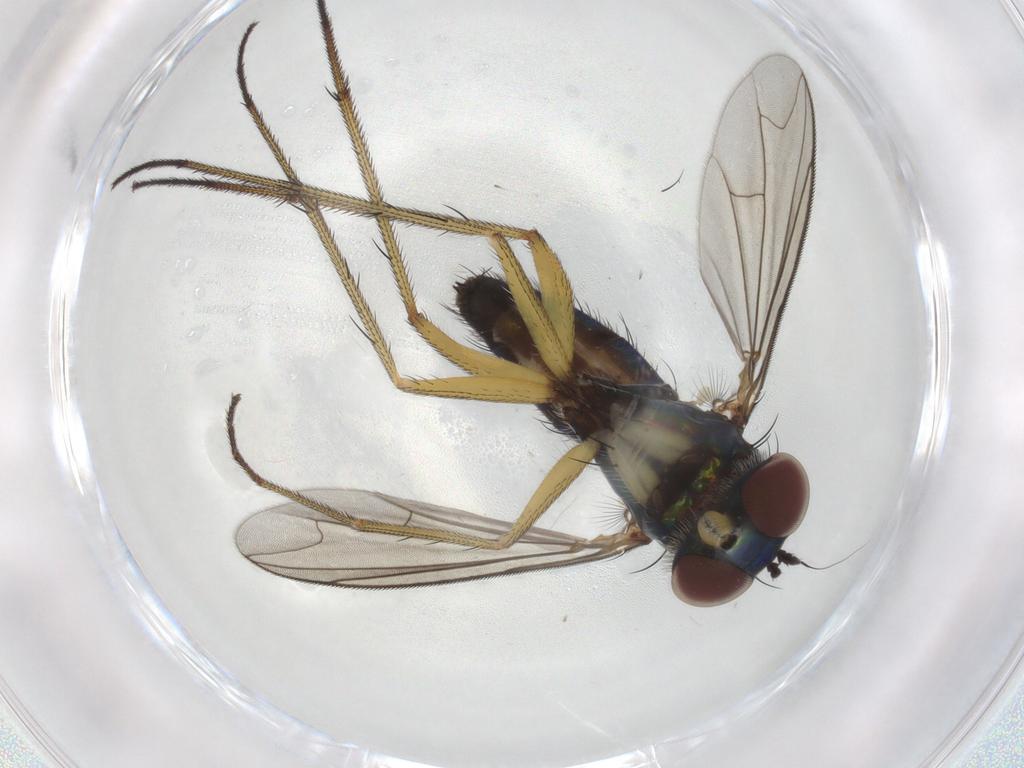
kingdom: Animalia
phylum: Arthropoda
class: Insecta
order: Diptera
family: Dolichopodidae
